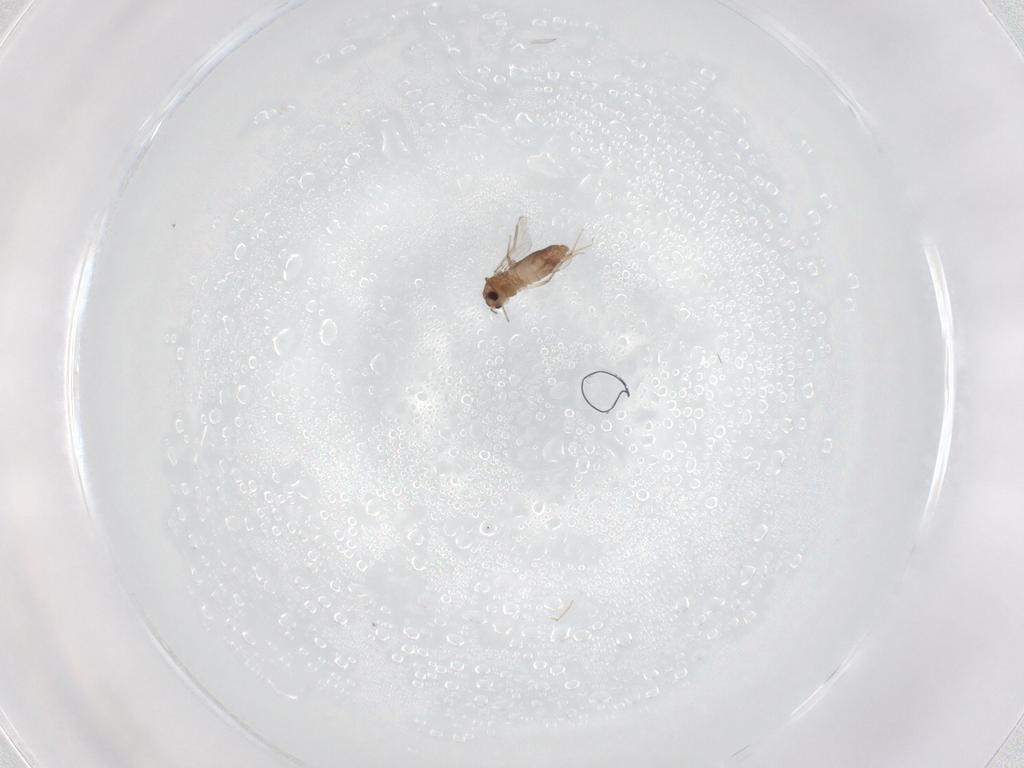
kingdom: Animalia
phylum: Arthropoda
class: Insecta
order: Diptera
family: Chironomidae
